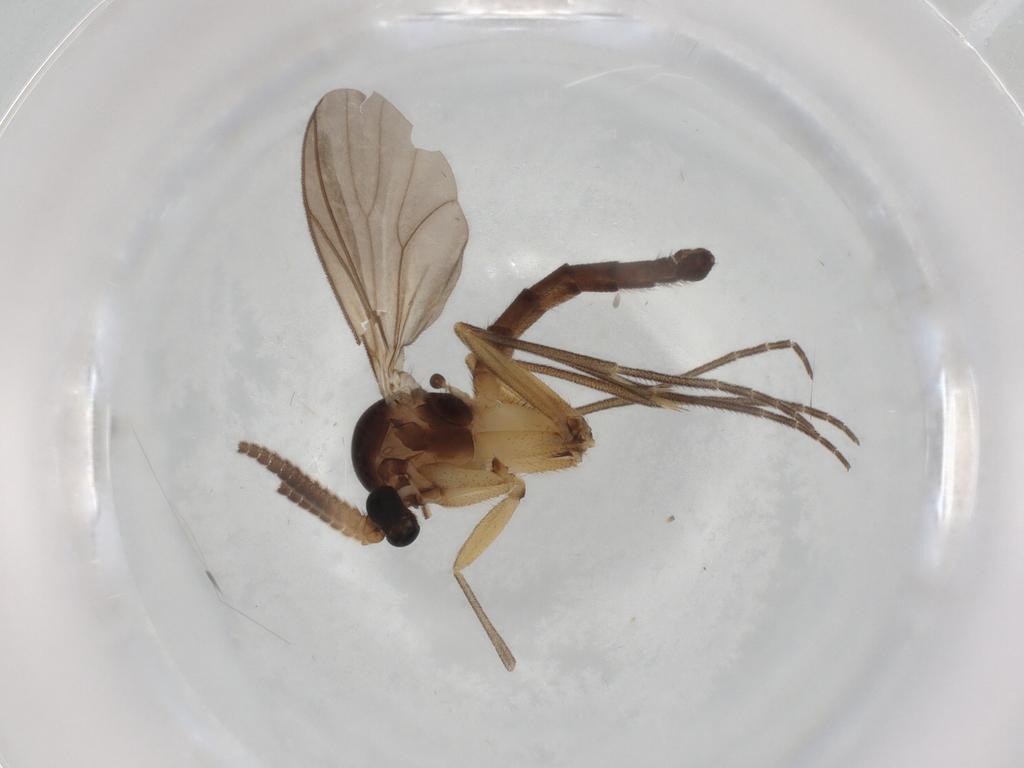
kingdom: Animalia
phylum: Arthropoda
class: Insecta
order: Diptera
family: Mycetophilidae
